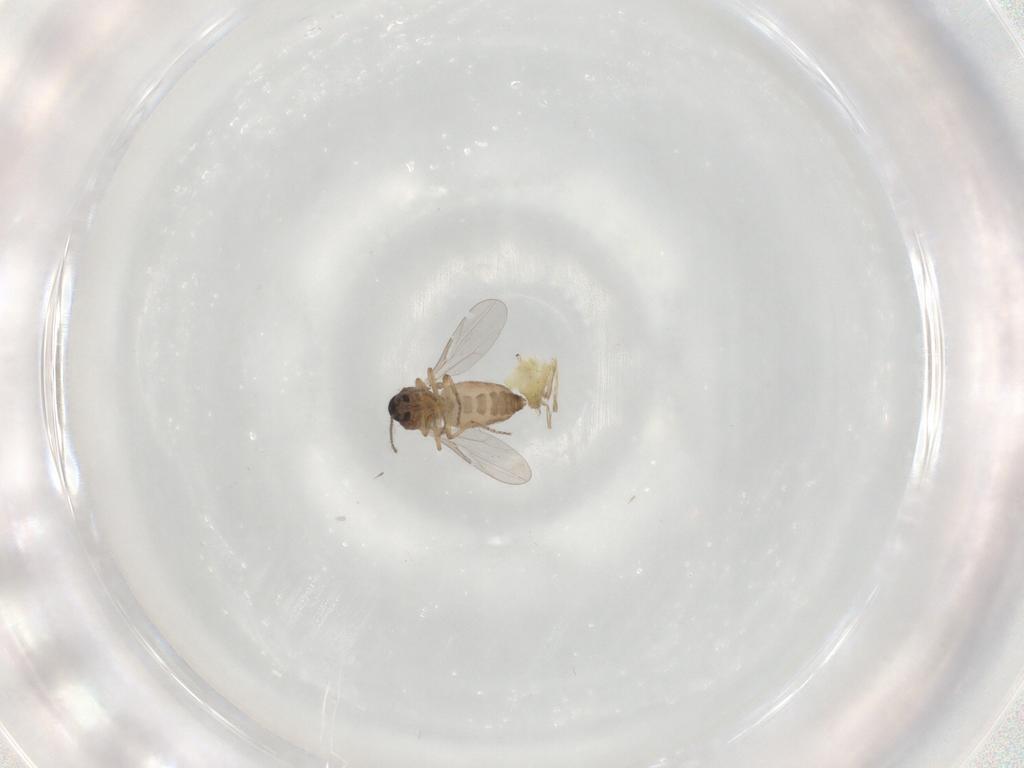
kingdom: Animalia
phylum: Arthropoda
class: Insecta
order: Diptera
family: Chironomidae
